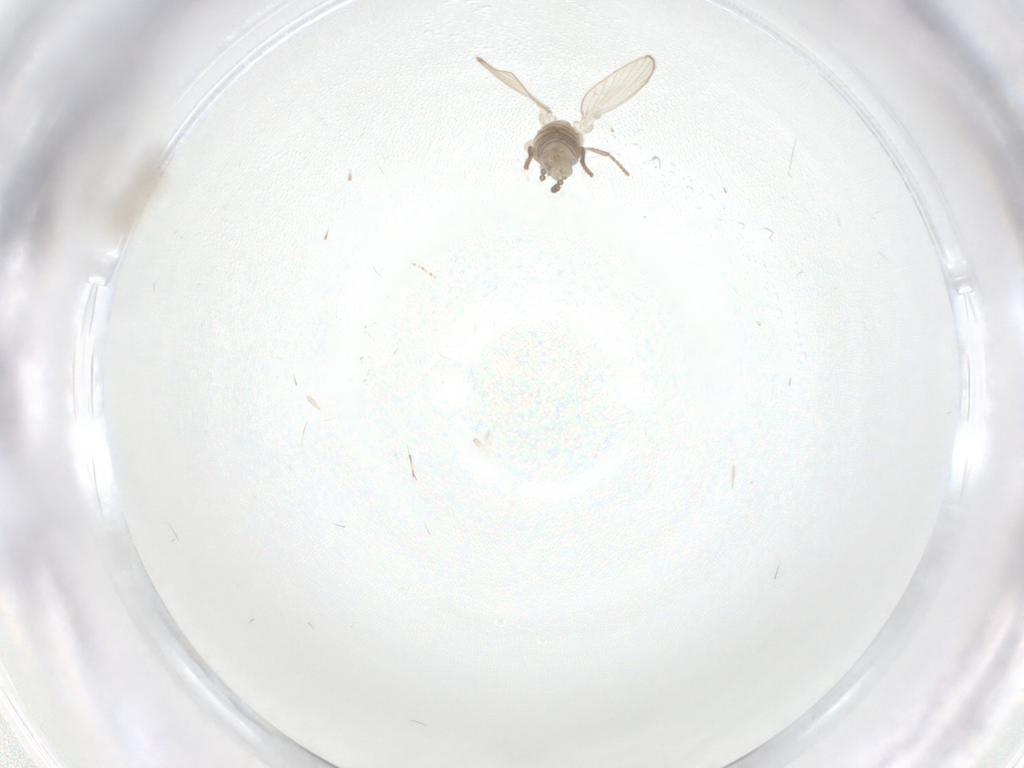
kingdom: Animalia
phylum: Arthropoda
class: Insecta
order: Diptera
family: Psychodidae
